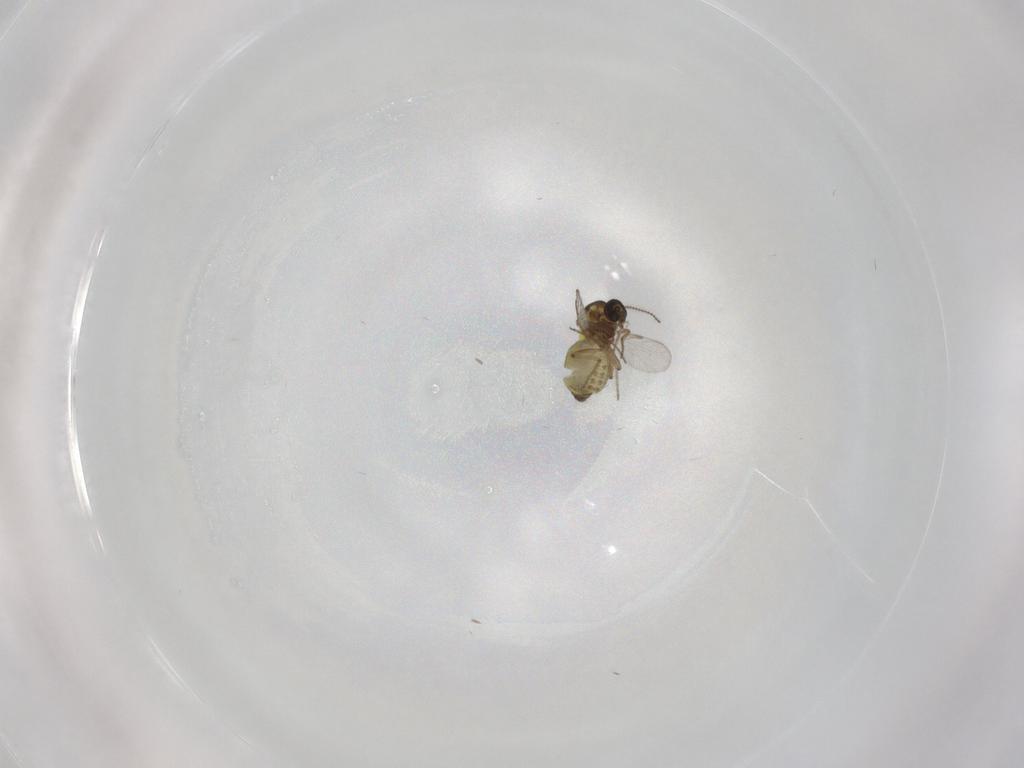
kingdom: Animalia
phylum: Arthropoda
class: Insecta
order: Diptera
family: Ceratopogonidae
